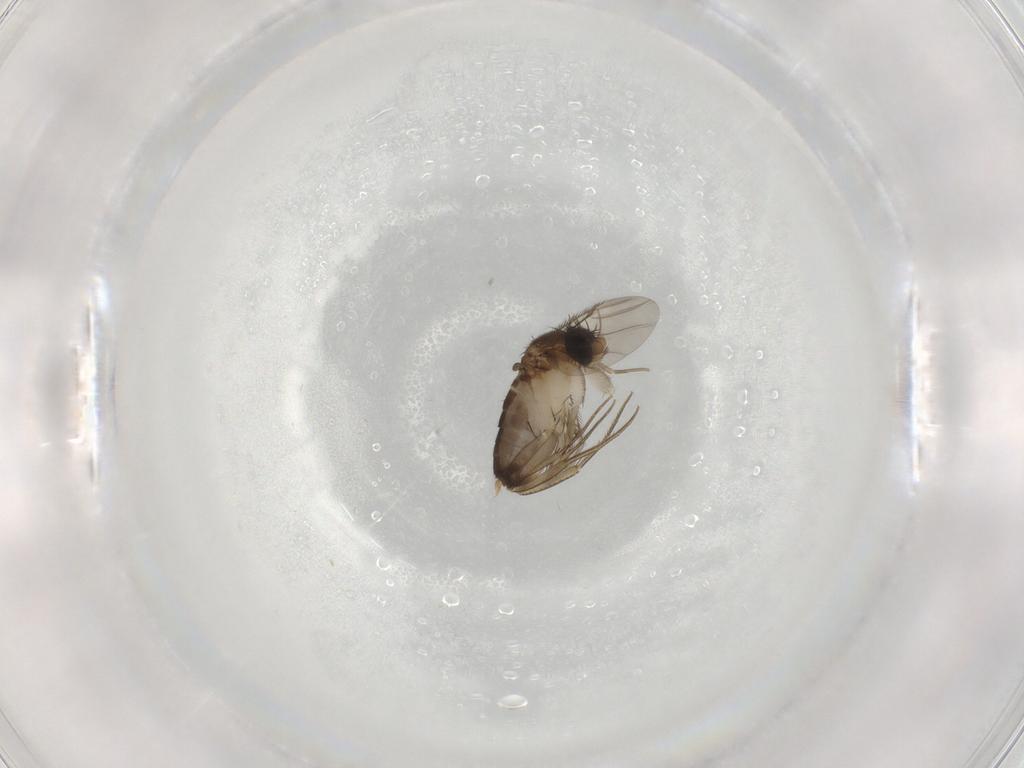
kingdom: Animalia
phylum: Arthropoda
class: Insecta
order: Diptera
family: Phoridae
